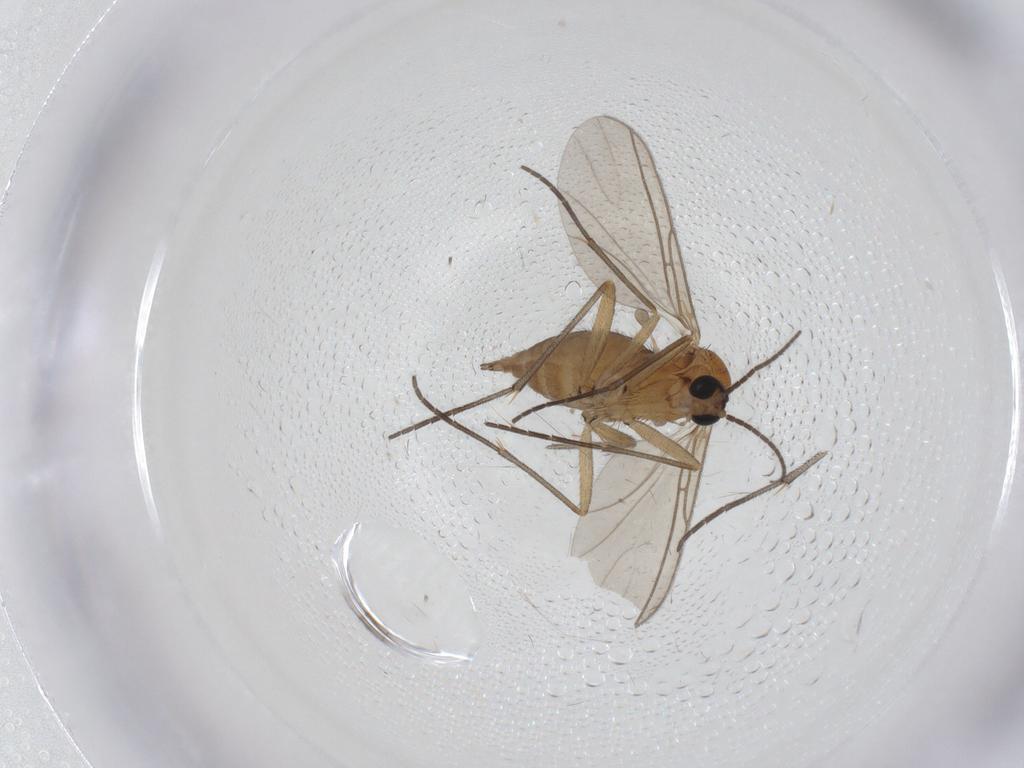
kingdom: Animalia
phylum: Arthropoda
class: Insecta
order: Diptera
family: Sciaridae
